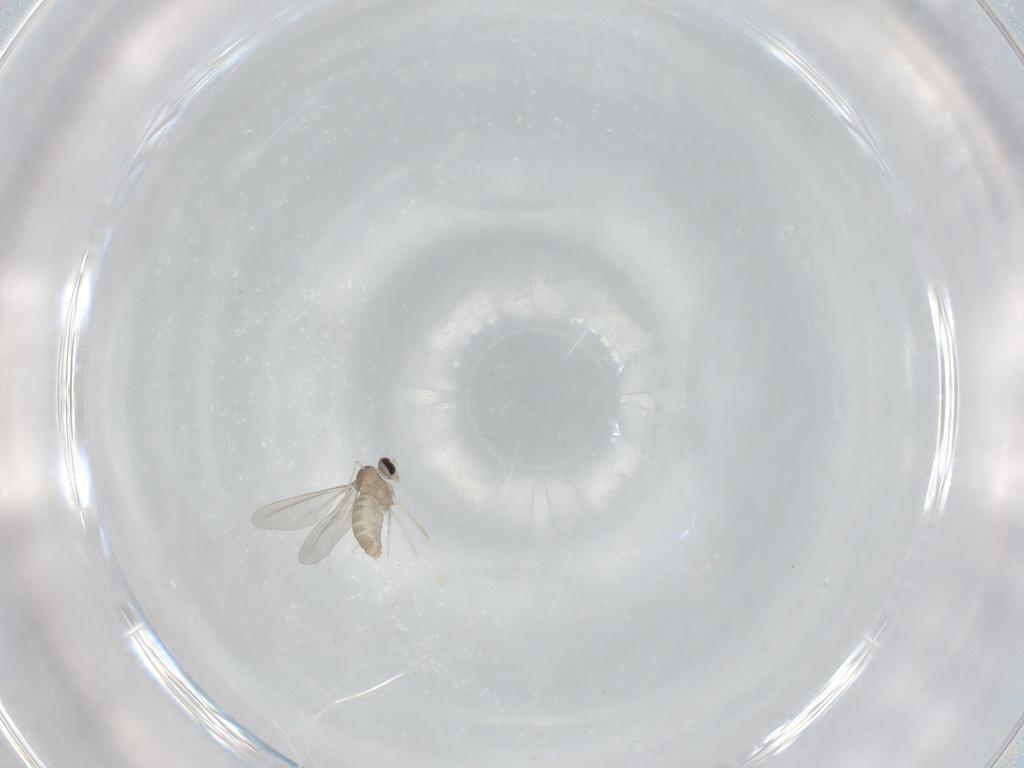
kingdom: Animalia
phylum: Arthropoda
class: Insecta
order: Diptera
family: Cecidomyiidae
